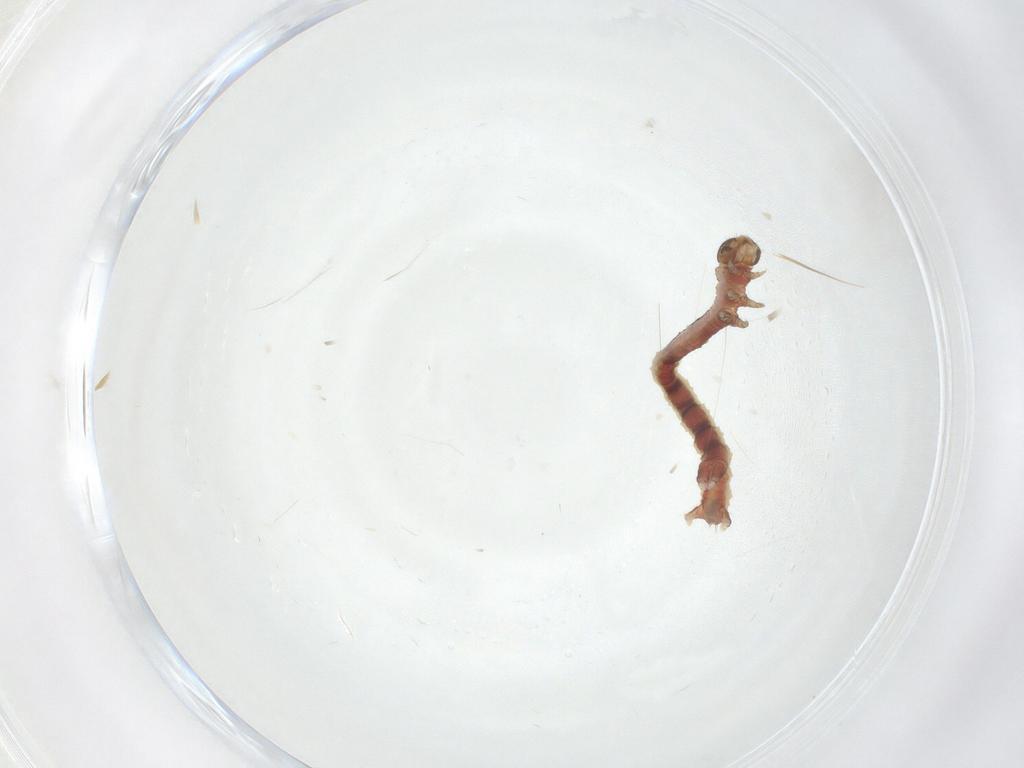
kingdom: Animalia
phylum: Arthropoda
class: Insecta
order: Lepidoptera
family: Geometridae
